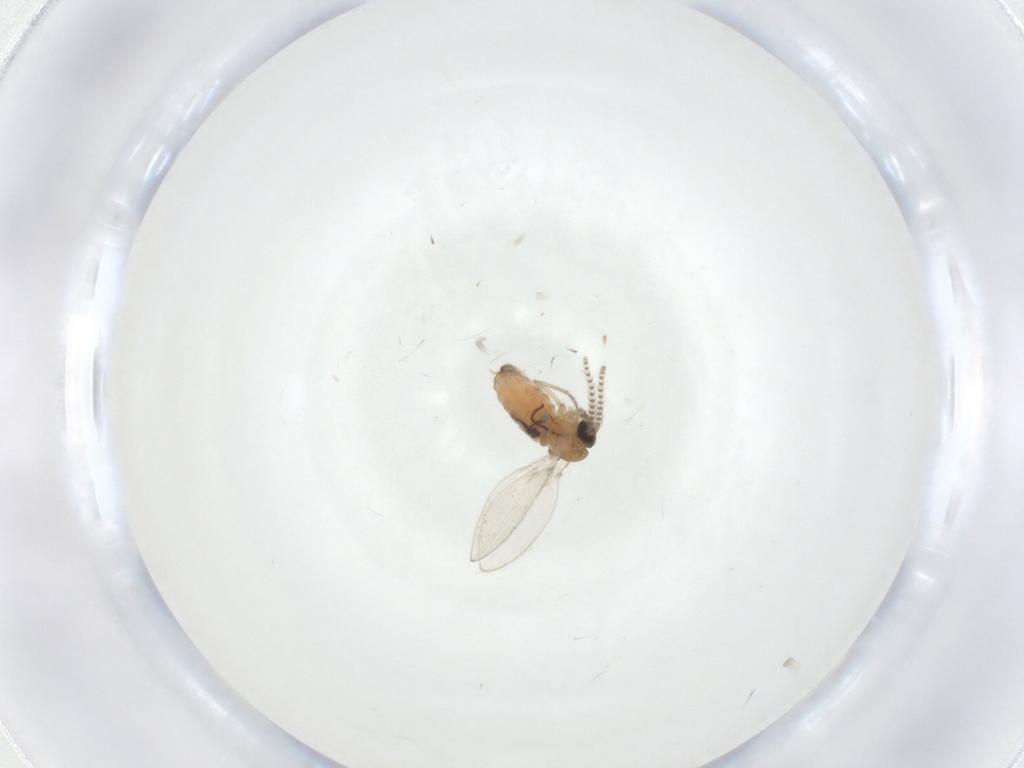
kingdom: Animalia
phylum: Arthropoda
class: Insecta
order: Diptera
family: Psychodidae
